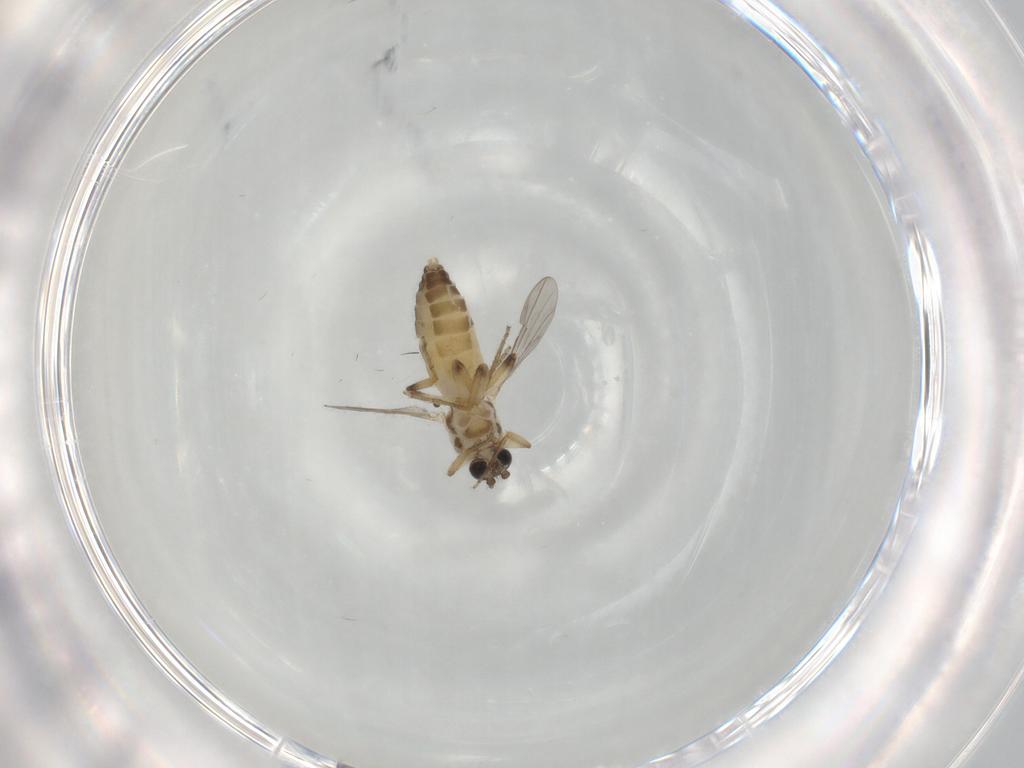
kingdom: Animalia
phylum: Arthropoda
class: Insecta
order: Diptera
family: Ceratopogonidae
